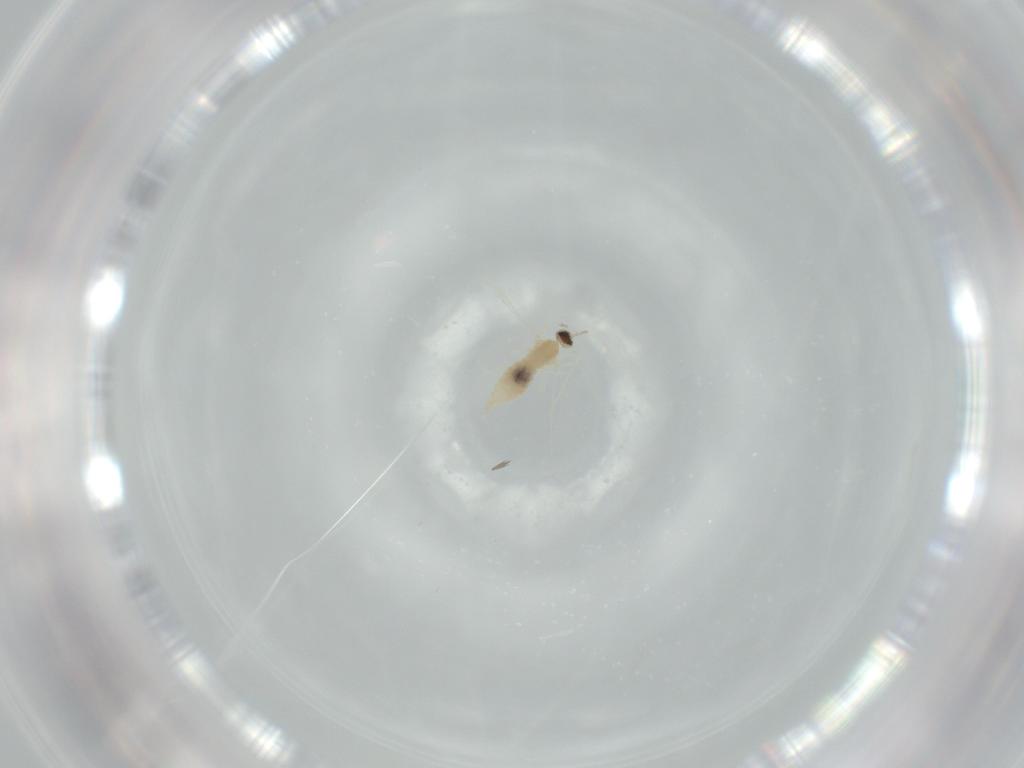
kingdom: Animalia
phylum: Arthropoda
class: Insecta
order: Diptera
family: Cecidomyiidae
